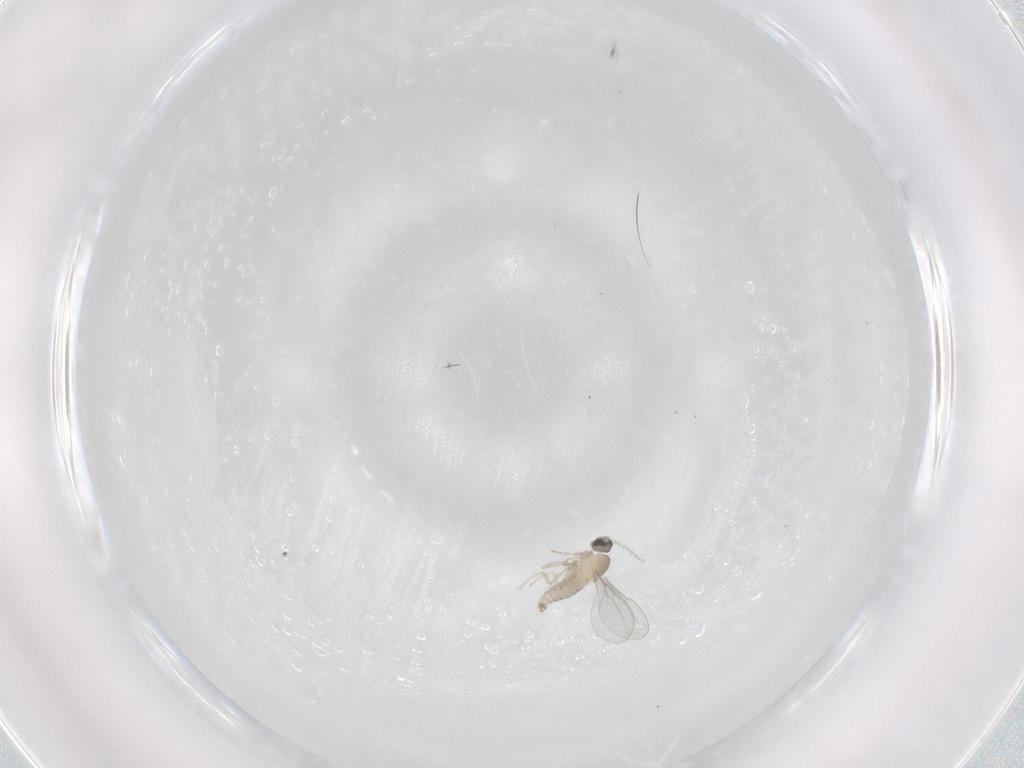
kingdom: Animalia
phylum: Arthropoda
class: Insecta
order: Diptera
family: Cecidomyiidae
